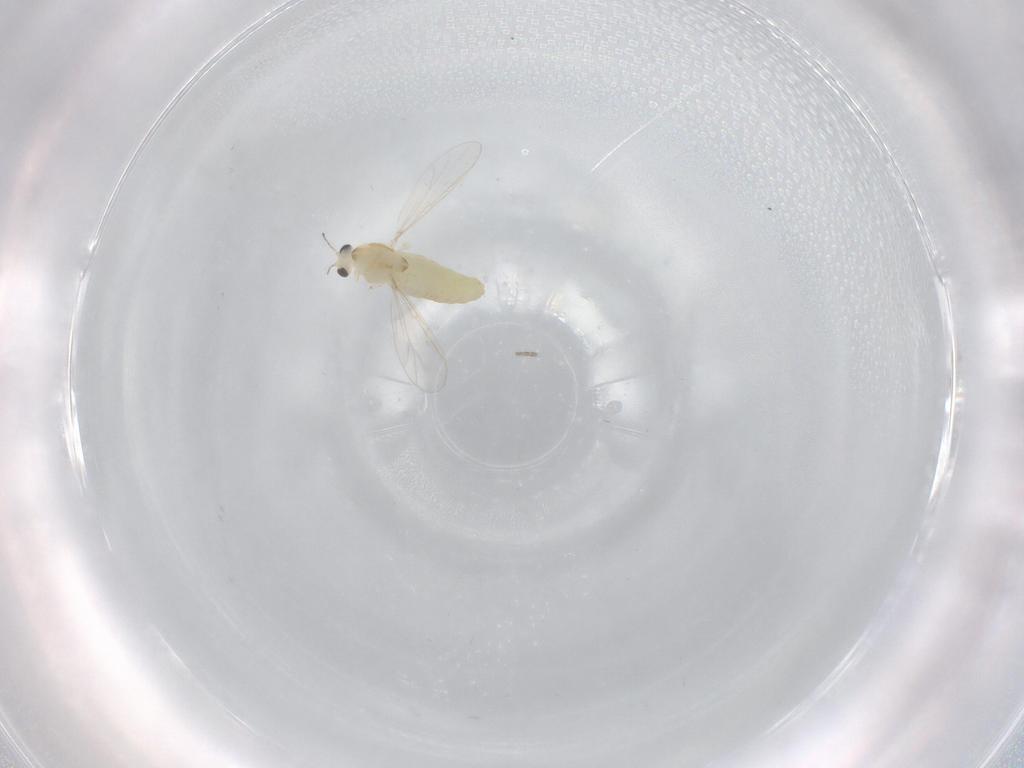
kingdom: Animalia
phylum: Arthropoda
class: Insecta
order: Diptera
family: Chironomidae
